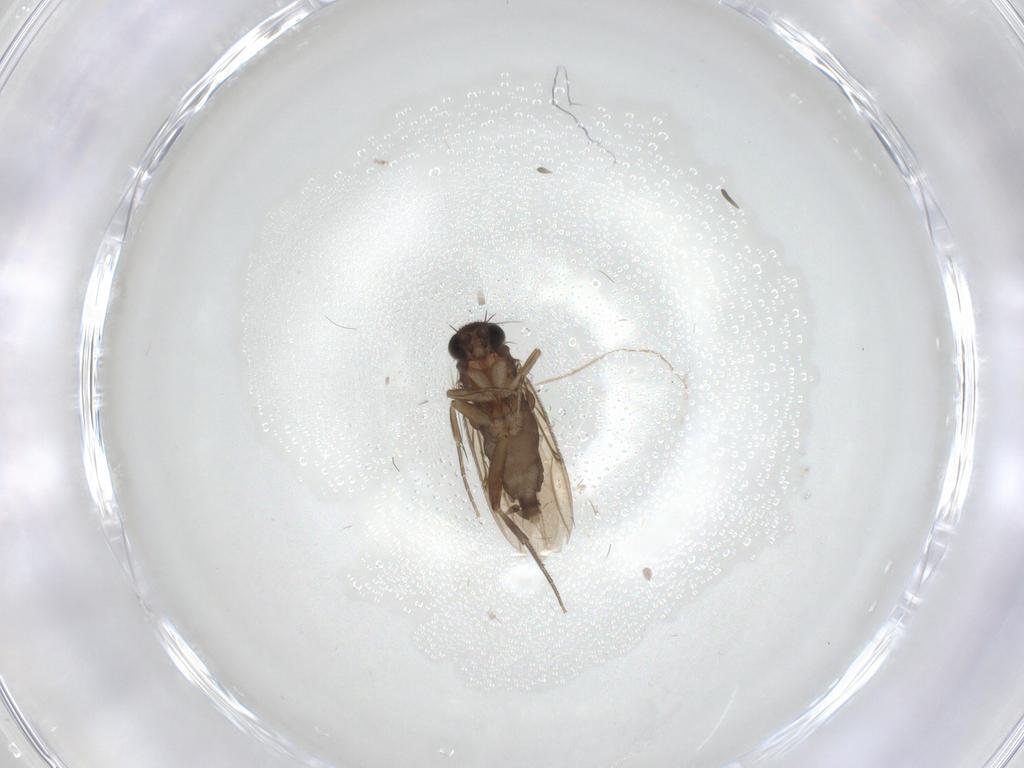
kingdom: Animalia
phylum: Arthropoda
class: Insecta
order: Diptera
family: Phoridae
